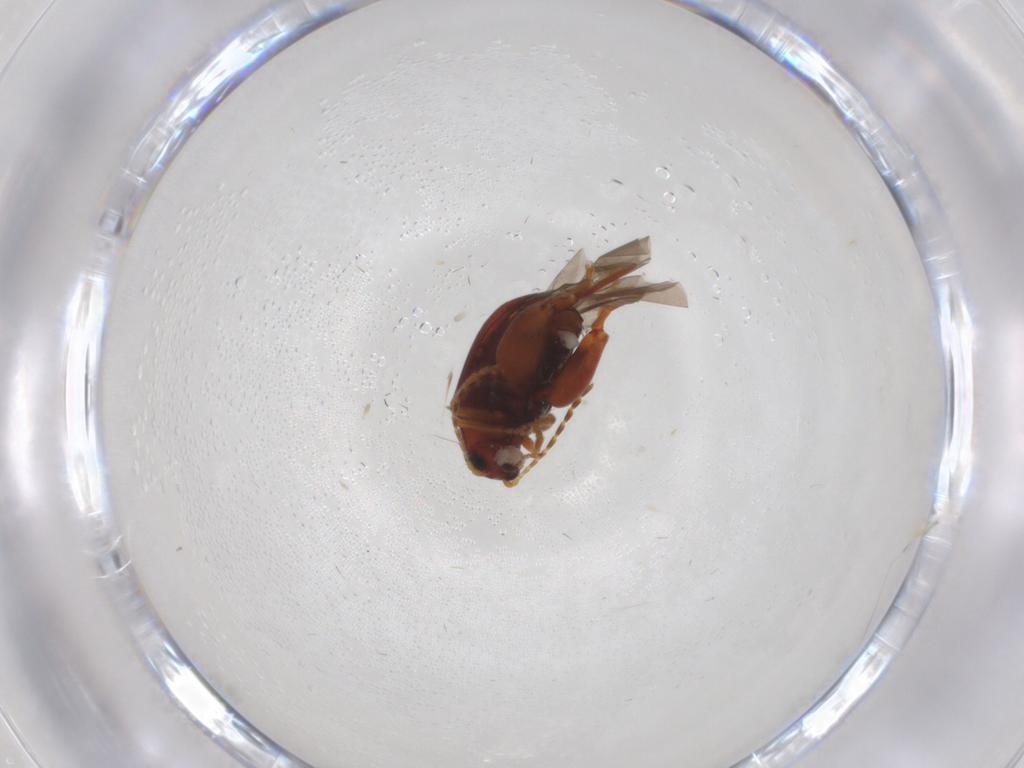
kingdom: Animalia
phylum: Arthropoda
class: Insecta
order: Coleoptera
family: Chrysomelidae
